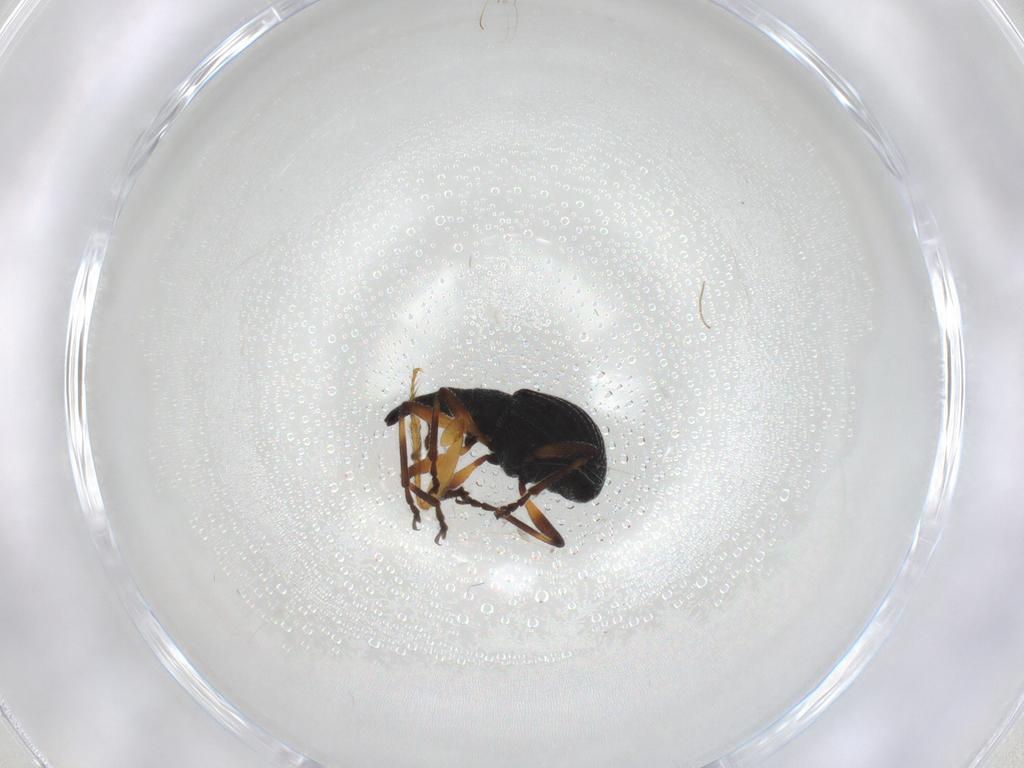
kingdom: Animalia
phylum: Arthropoda
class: Insecta
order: Coleoptera
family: Brentidae
